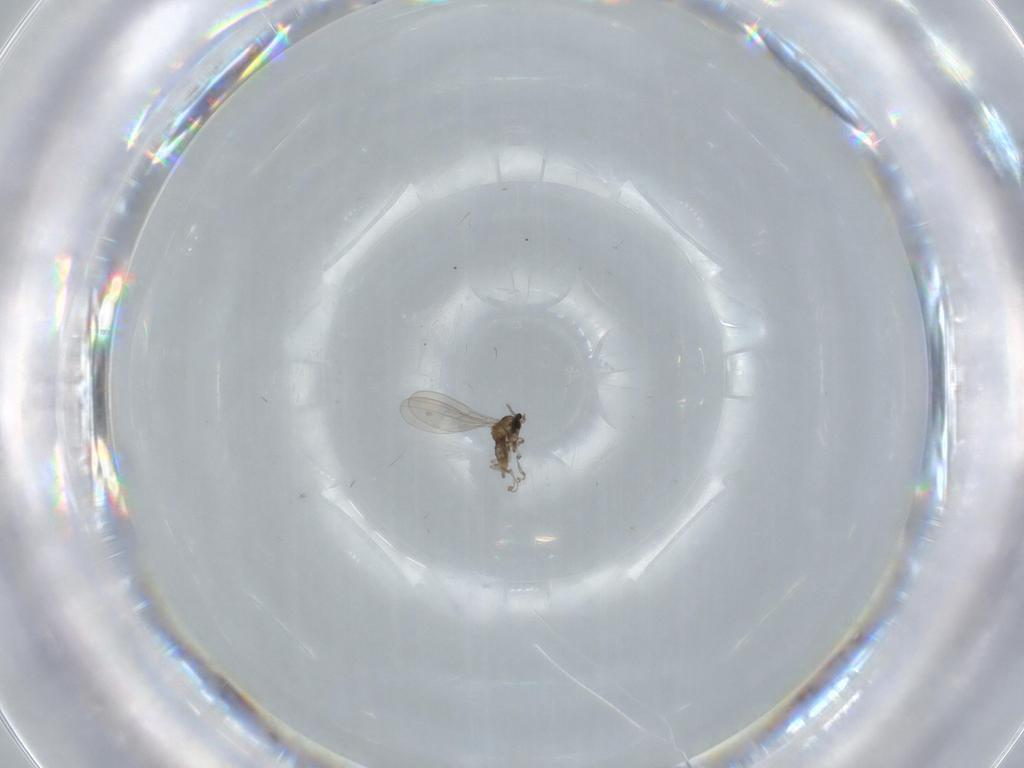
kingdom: Animalia
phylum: Arthropoda
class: Insecta
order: Diptera
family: Cecidomyiidae
